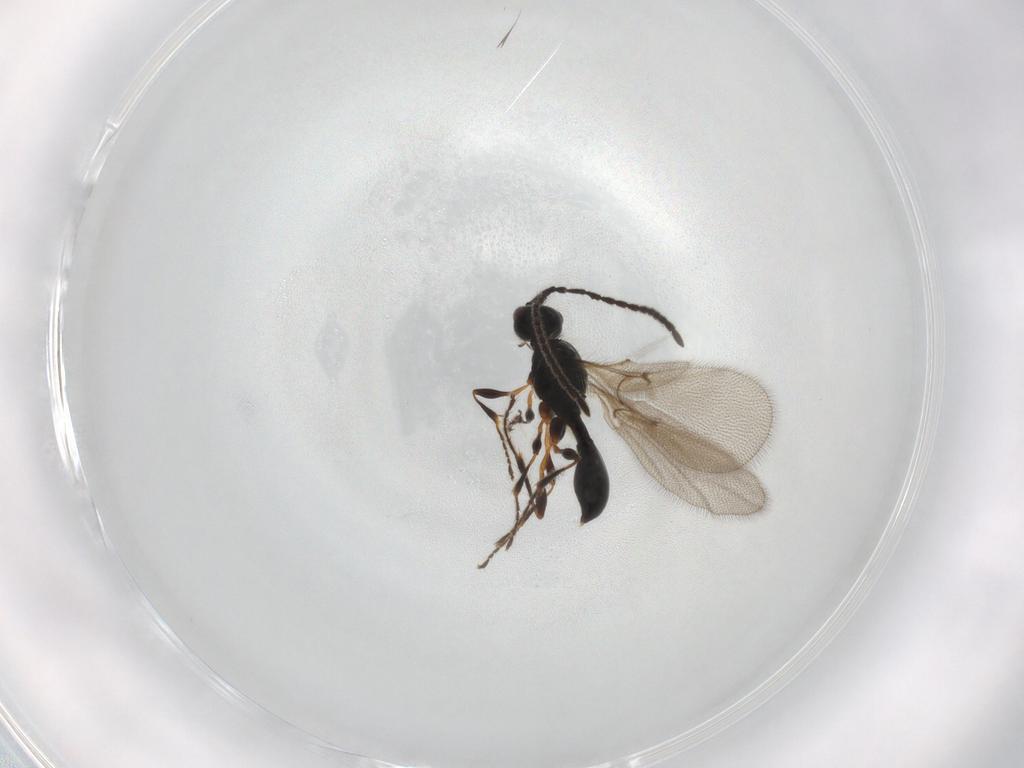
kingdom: Animalia
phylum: Arthropoda
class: Insecta
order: Hymenoptera
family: Diapriidae
